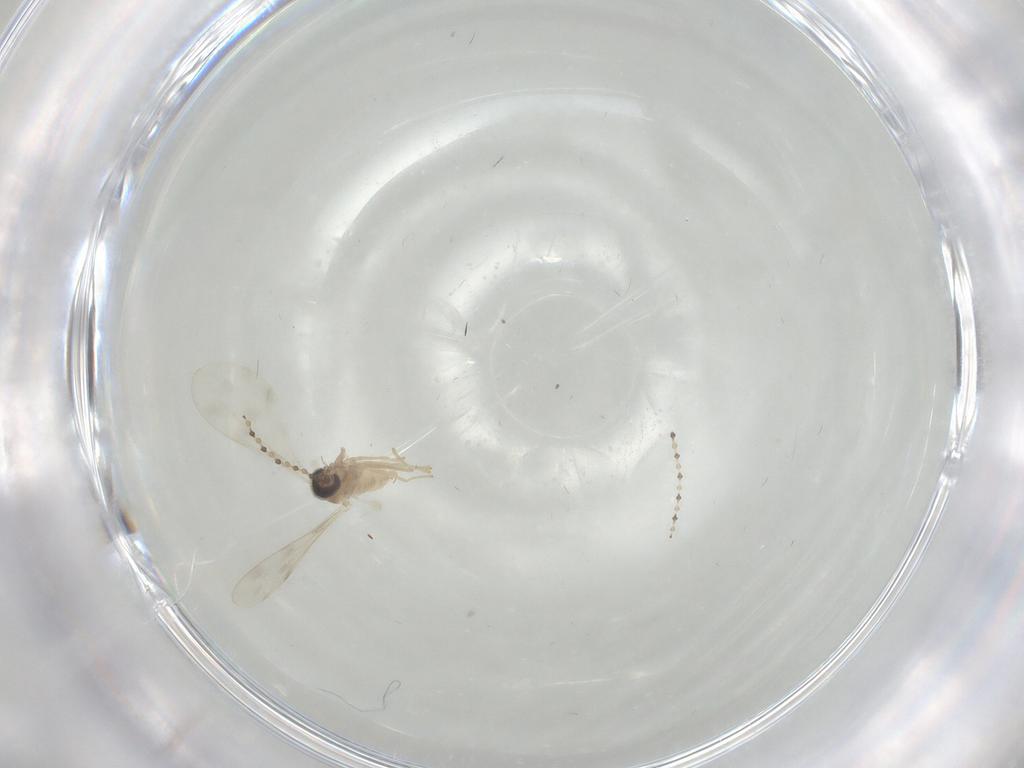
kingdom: Animalia
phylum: Arthropoda
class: Insecta
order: Diptera
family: Cecidomyiidae
